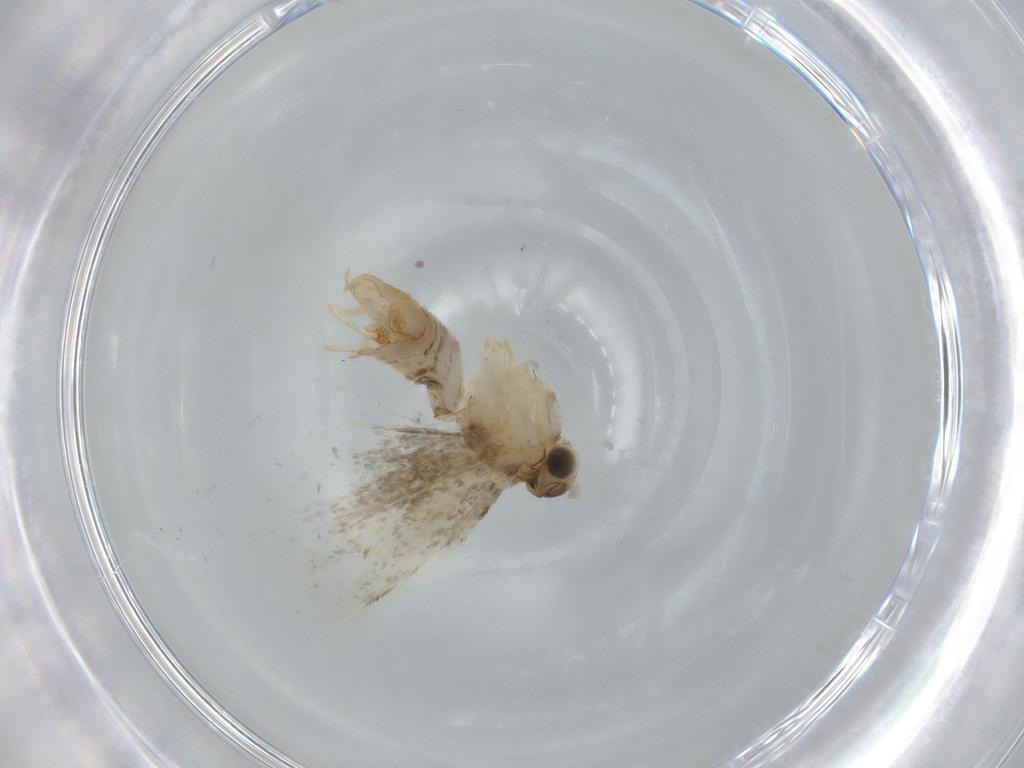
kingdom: Animalia
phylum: Arthropoda
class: Insecta
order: Lepidoptera
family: Tineidae
